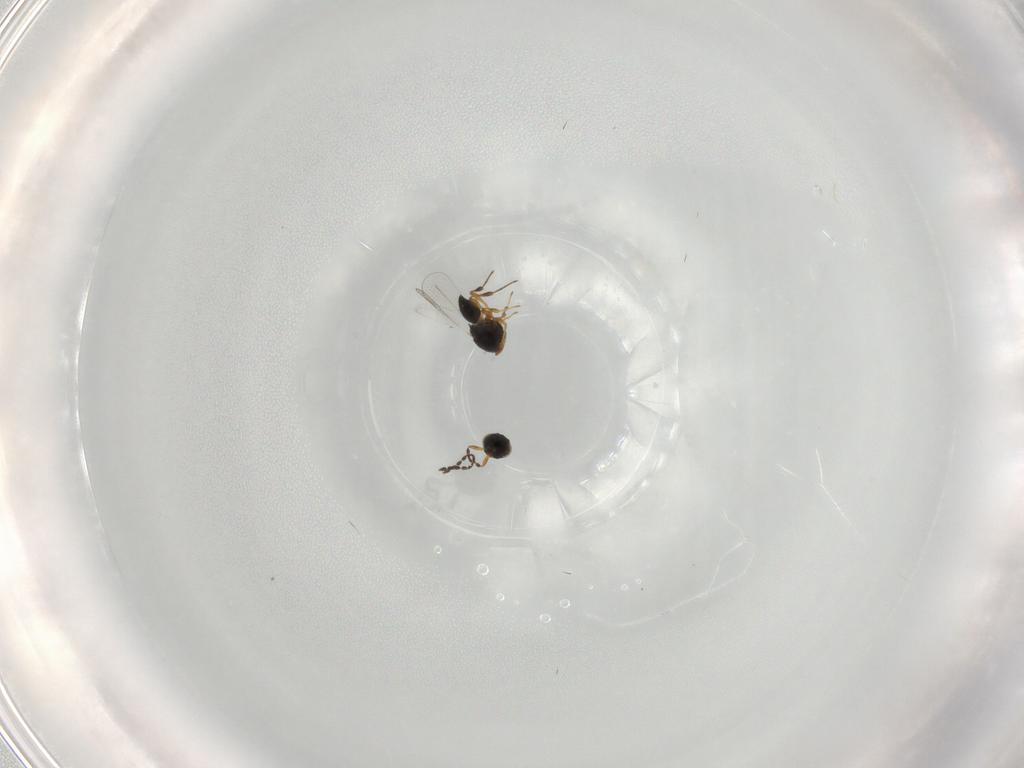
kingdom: Animalia
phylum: Arthropoda
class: Insecta
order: Hymenoptera
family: Platygastridae
